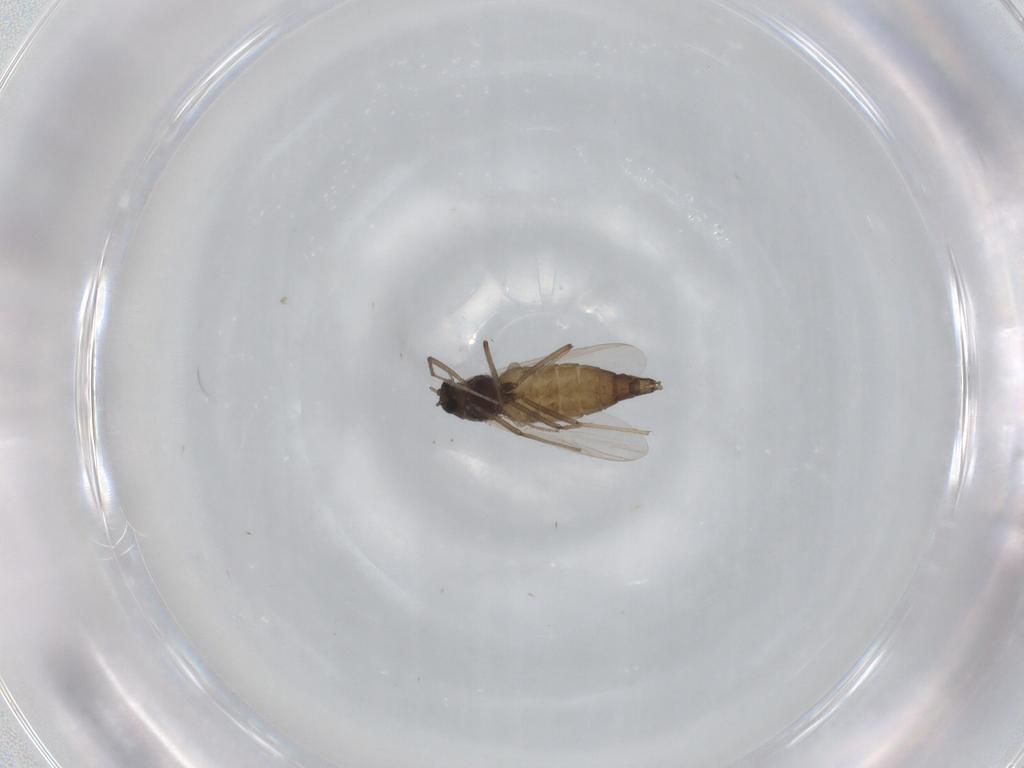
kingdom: Animalia
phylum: Arthropoda
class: Insecta
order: Diptera
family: Chironomidae
